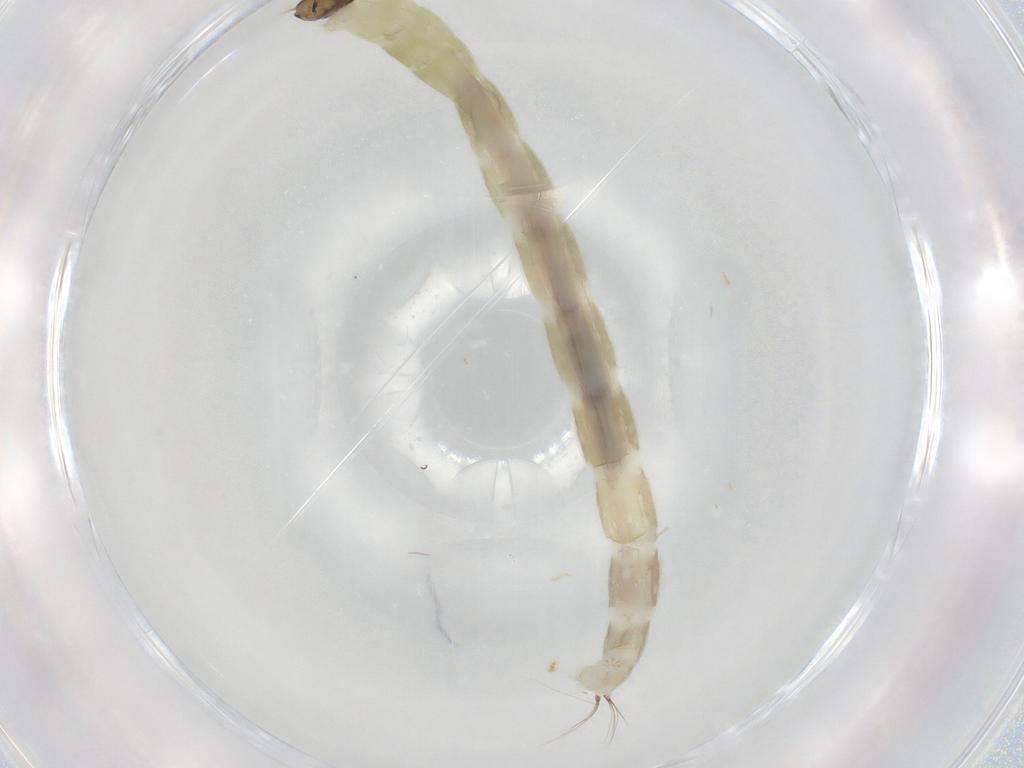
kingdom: Animalia
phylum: Arthropoda
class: Insecta
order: Diptera
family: Chironomidae
